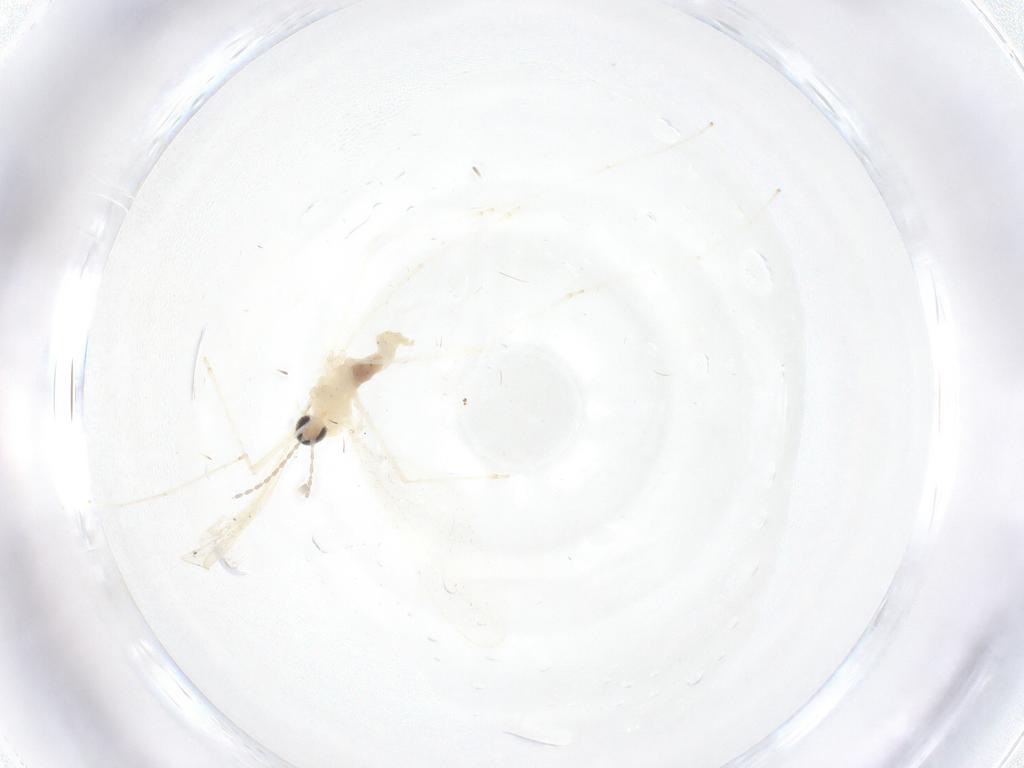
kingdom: Animalia
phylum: Arthropoda
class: Insecta
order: Diptera
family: Cecidomyiidae
